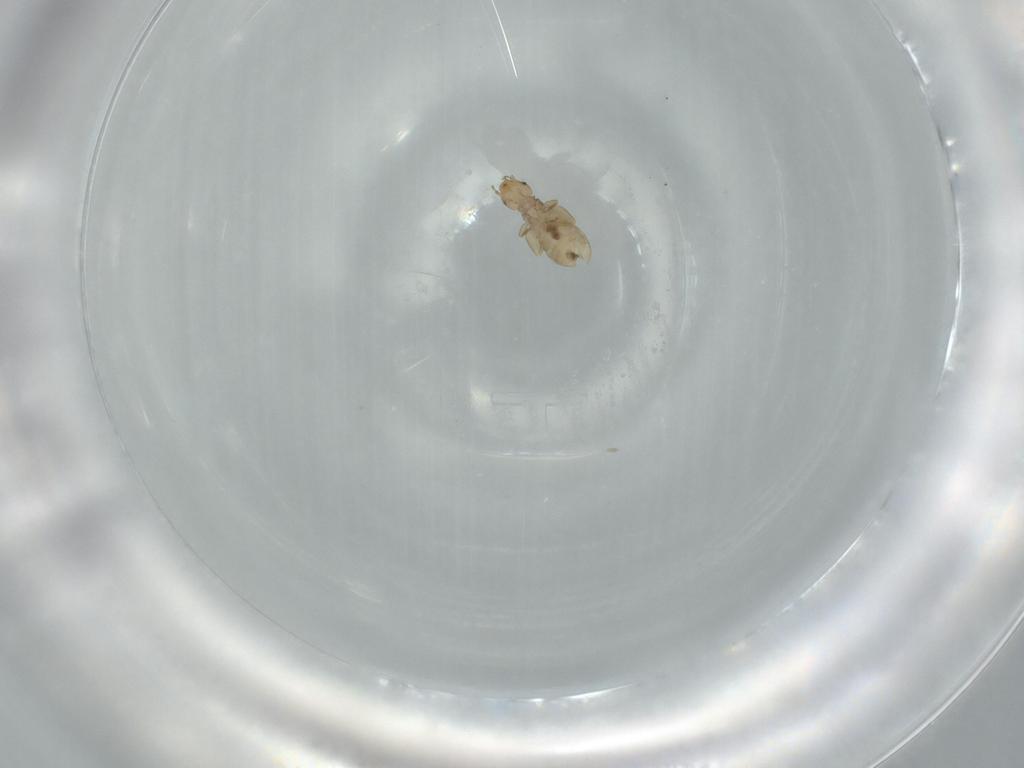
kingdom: Animalia
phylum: Arthropoda
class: Insecta
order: Psocodea
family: Liposcelididae
